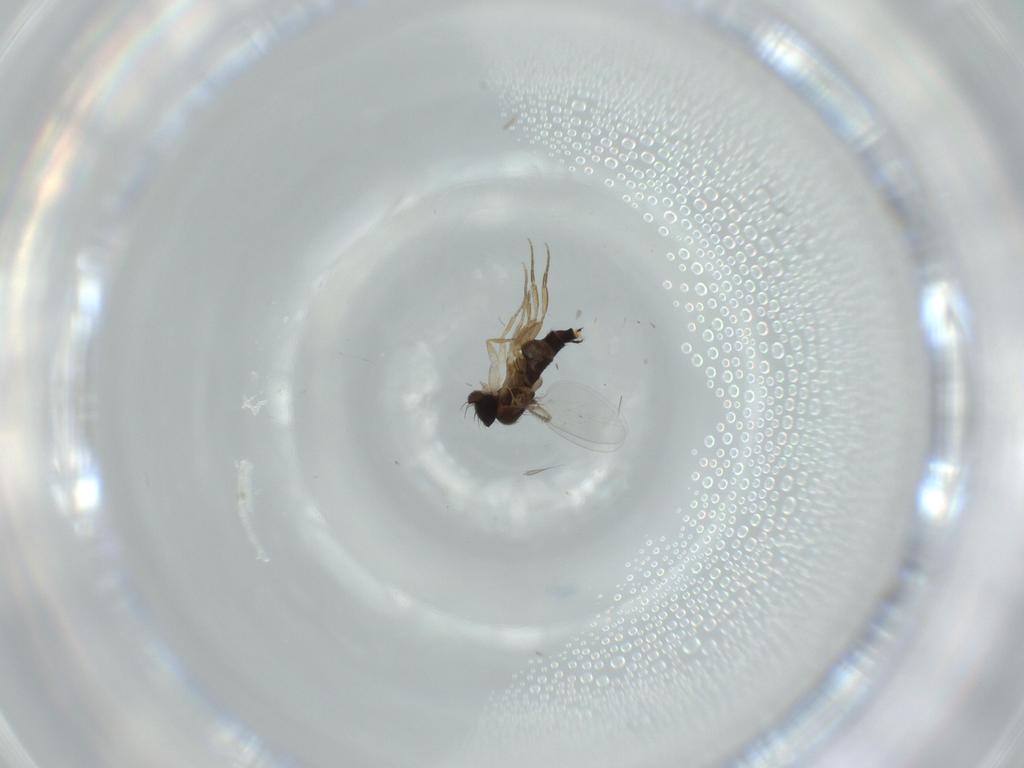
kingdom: Animalia
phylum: Arthropoda
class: Insecta
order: Diptera
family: Phoridae
